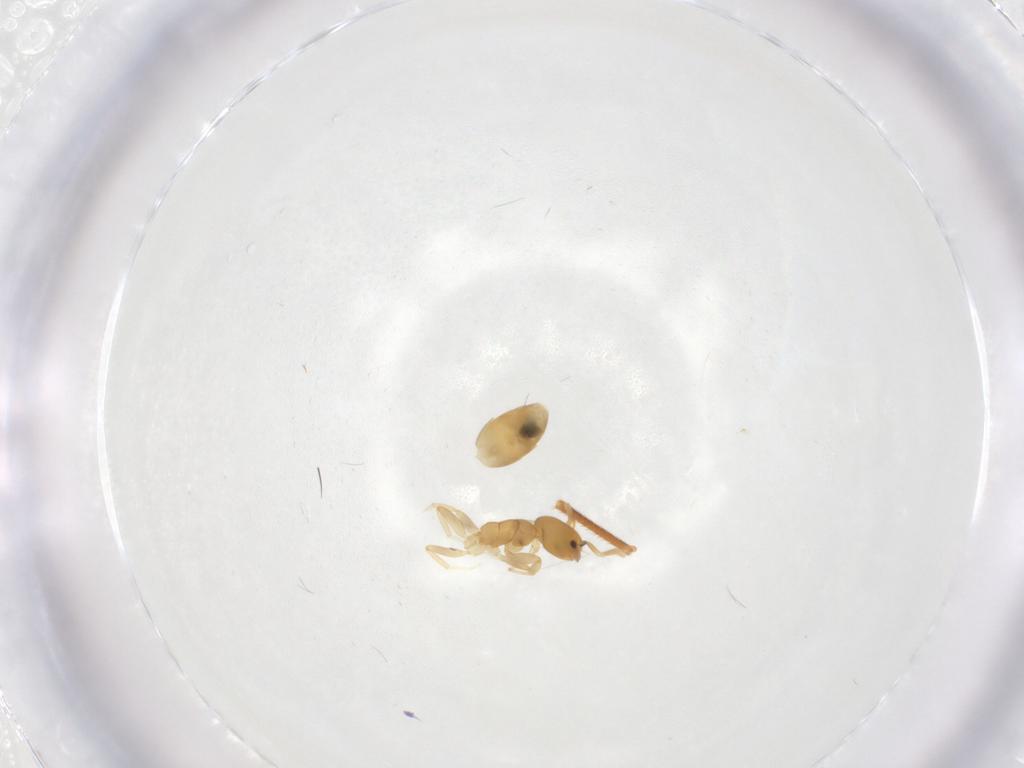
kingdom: Animalia
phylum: Arthropoda
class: Insecta
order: Hymenoptera
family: Formicidae
